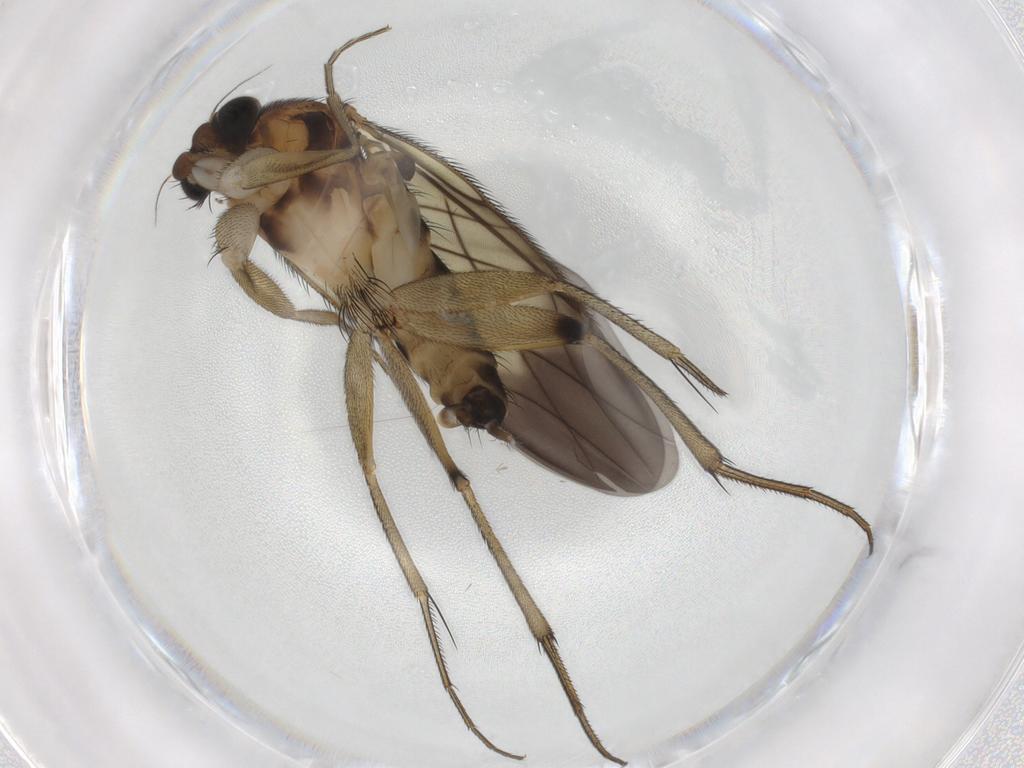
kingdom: Animalia
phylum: Arthropoda
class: Insecta
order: Diptera
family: Phoridae
